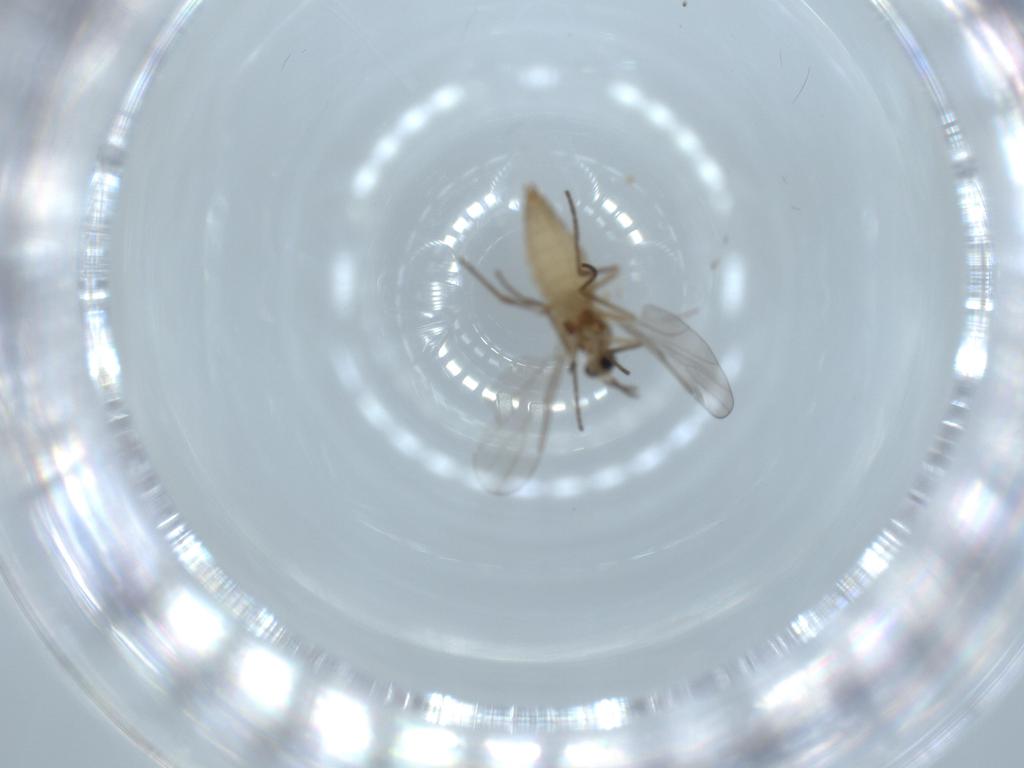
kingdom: Animalia
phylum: Arthropoda
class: Insecta
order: Diptera
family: Cecidomyiidae
